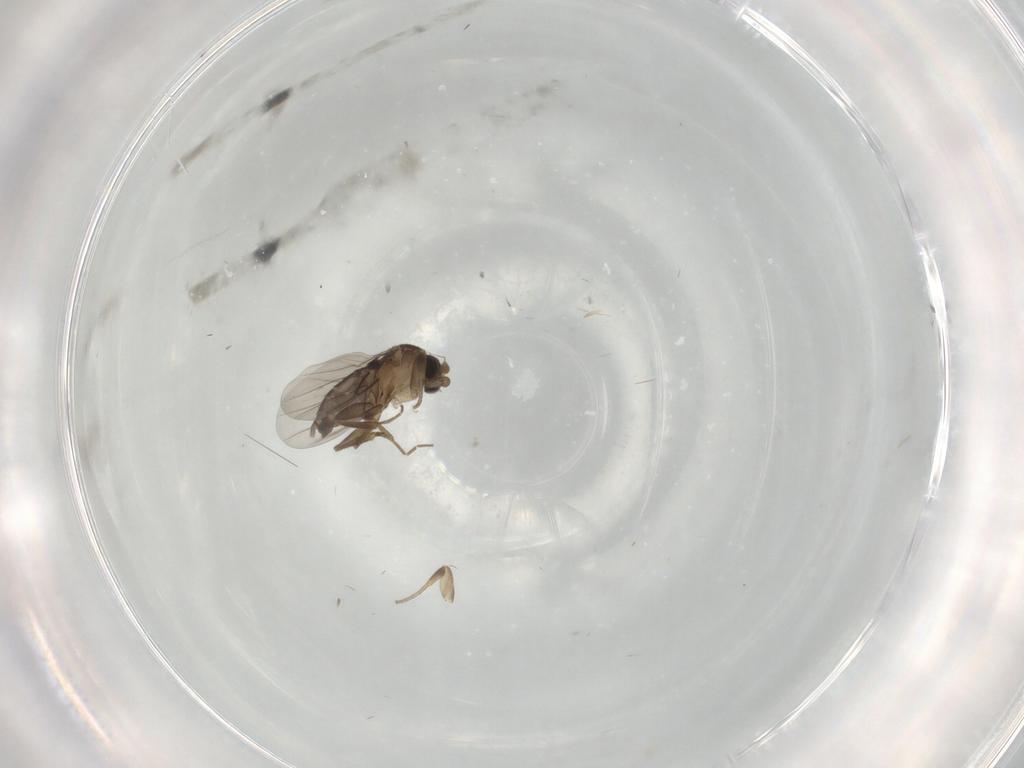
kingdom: Animalia
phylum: Arthropoda
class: Insecta
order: Diptera
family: Phoridae
